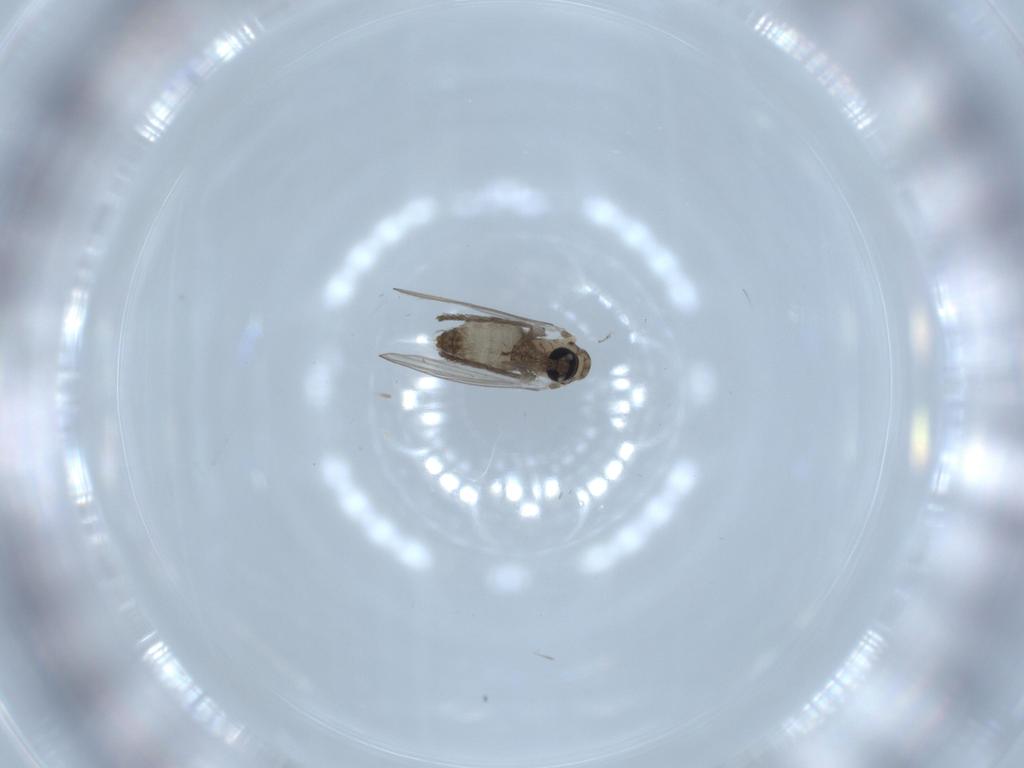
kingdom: Animalia
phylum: Arthropoda
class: Insecta
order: Diptera
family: Psychodidae
